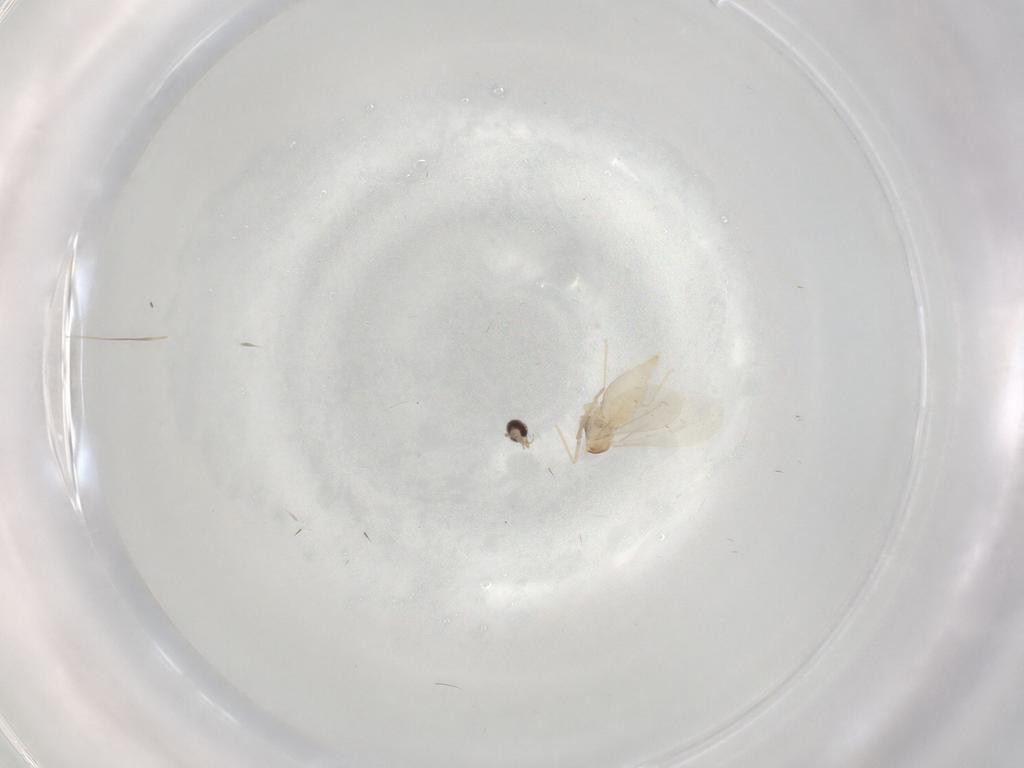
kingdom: Animalia
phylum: Arthropoda
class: Insecta
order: Diptera
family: Cecidomyiidae
